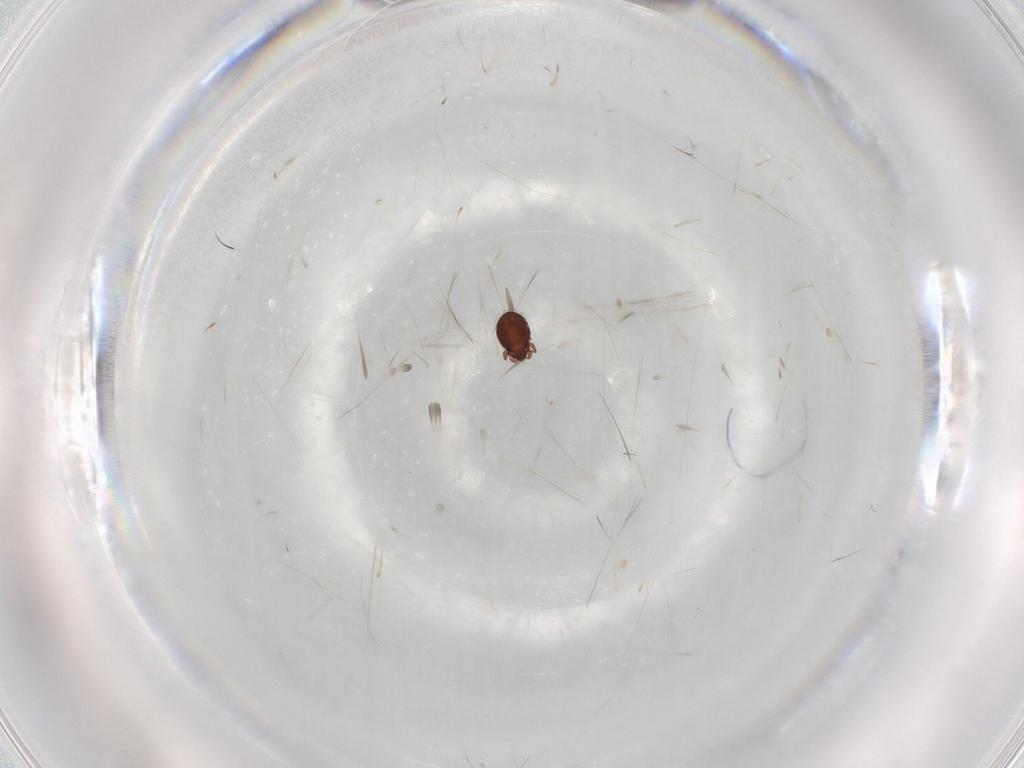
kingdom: Animalia
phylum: Arthropoda
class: Arachnida
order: Sarcoptiformes
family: Scheloribatidae
